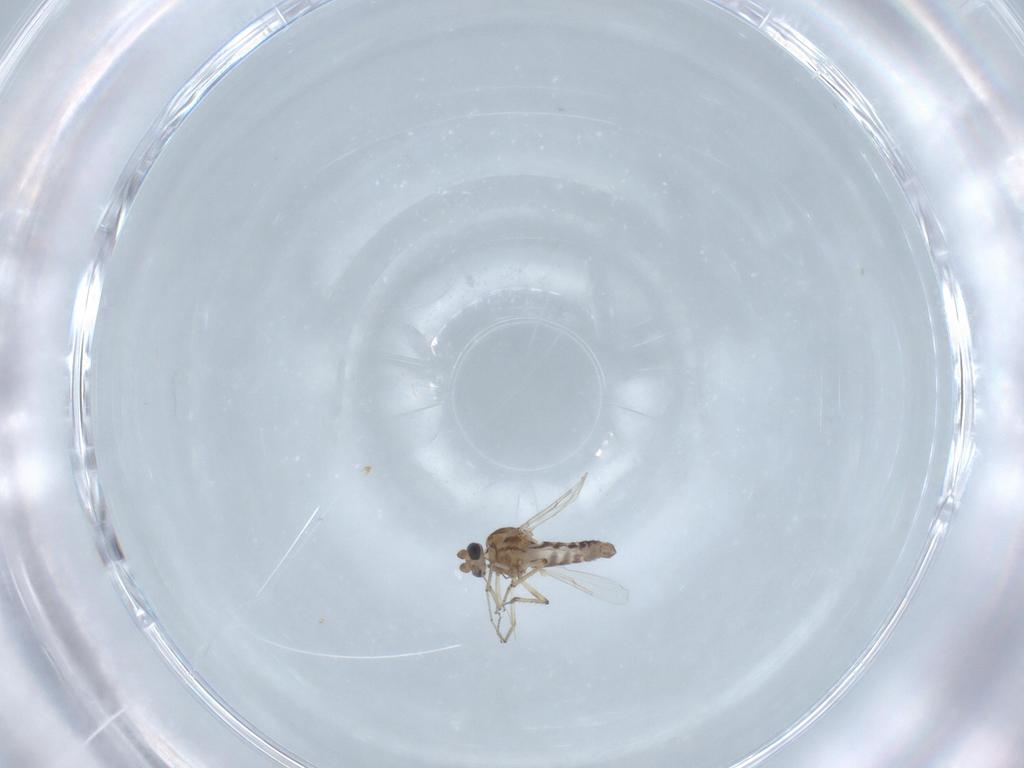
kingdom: Animalia
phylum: Arthropoda
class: Insecta
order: Diptera
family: Ceratopogonidae
